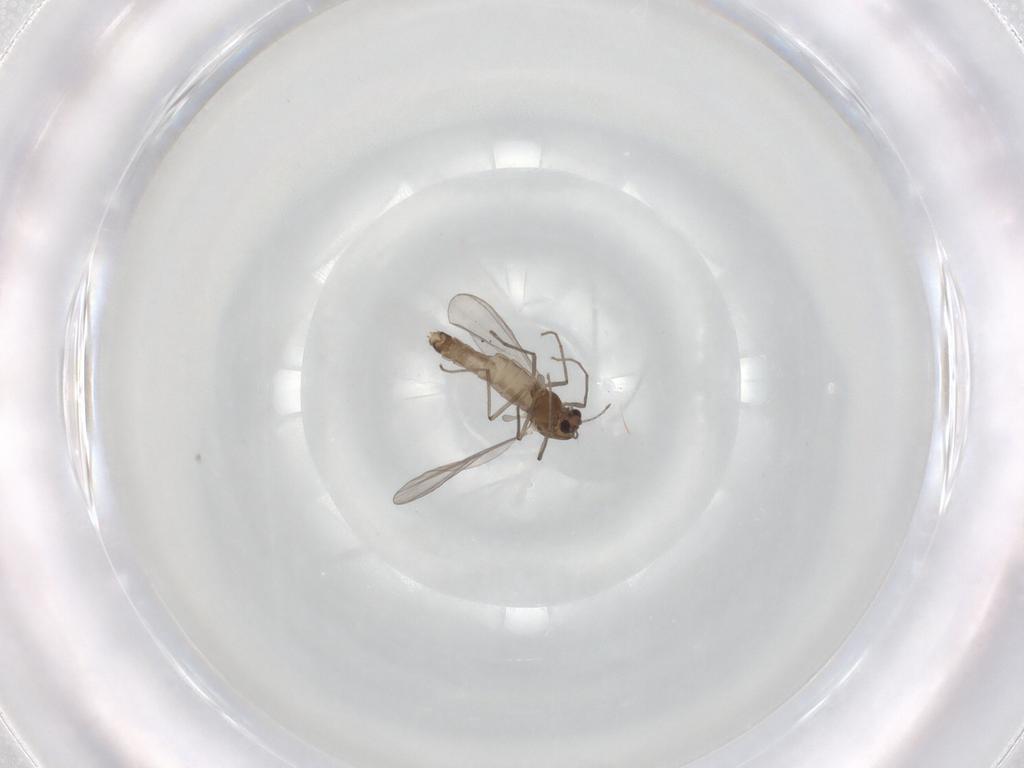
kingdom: Animalia
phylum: Arthropoda
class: Insecta
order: Diptera
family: Chironomidae
